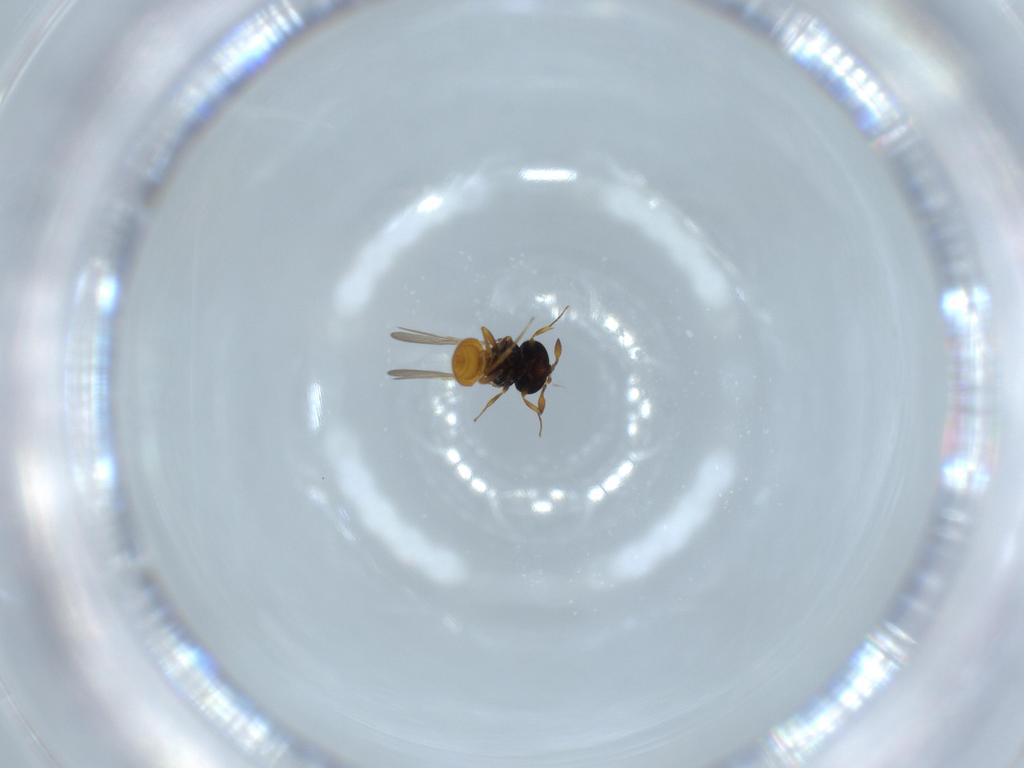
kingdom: Animalia
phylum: Arthropoda
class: Insecta
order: Hymenoptera
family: Scelionidae
